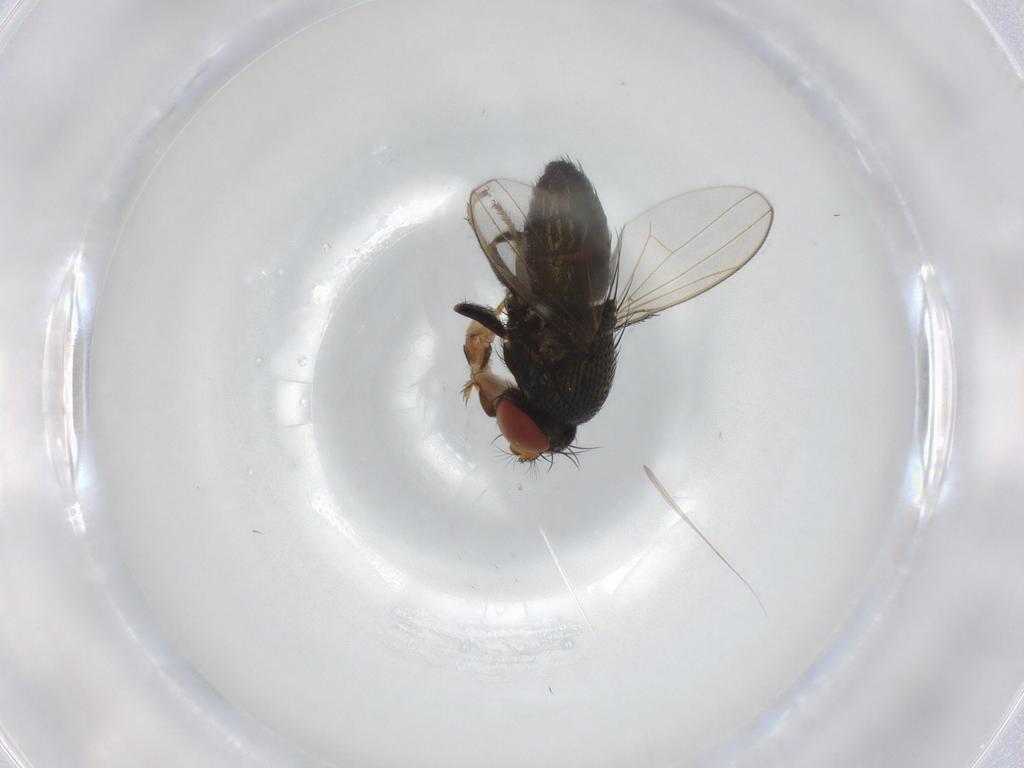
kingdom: Animalia
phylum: Arthropoda
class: Insecta
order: Diptera
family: Ephydridae
